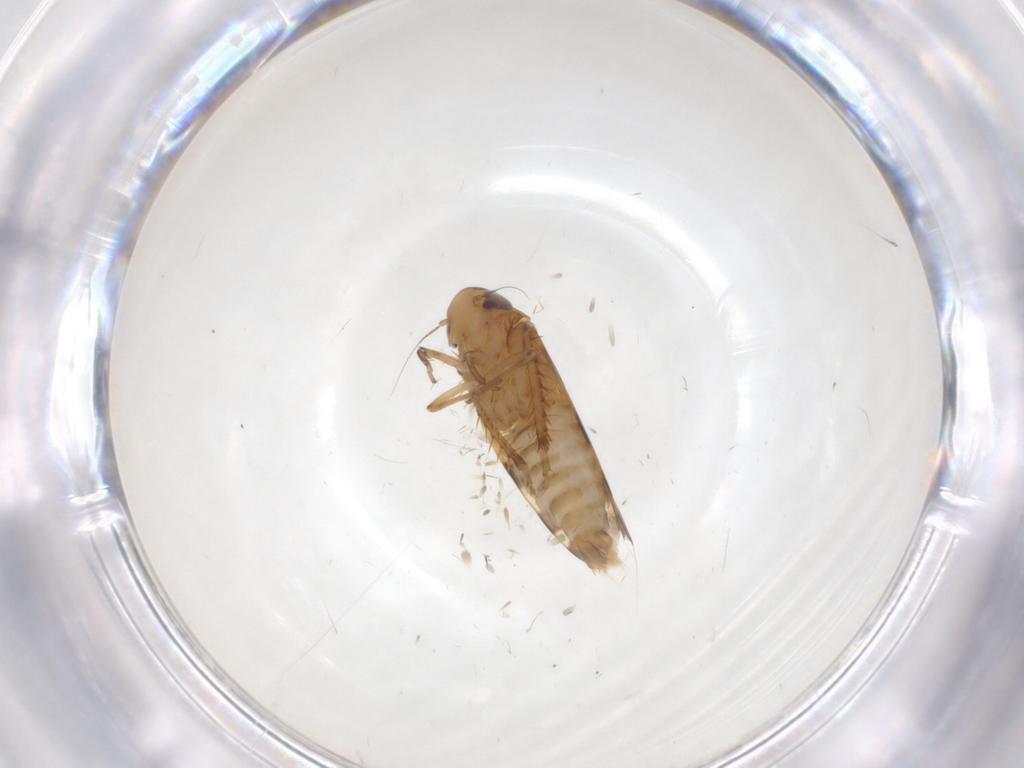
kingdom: Animalia
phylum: Arthropoda
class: Insecta
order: Hemiptera
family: Cicadellidae
